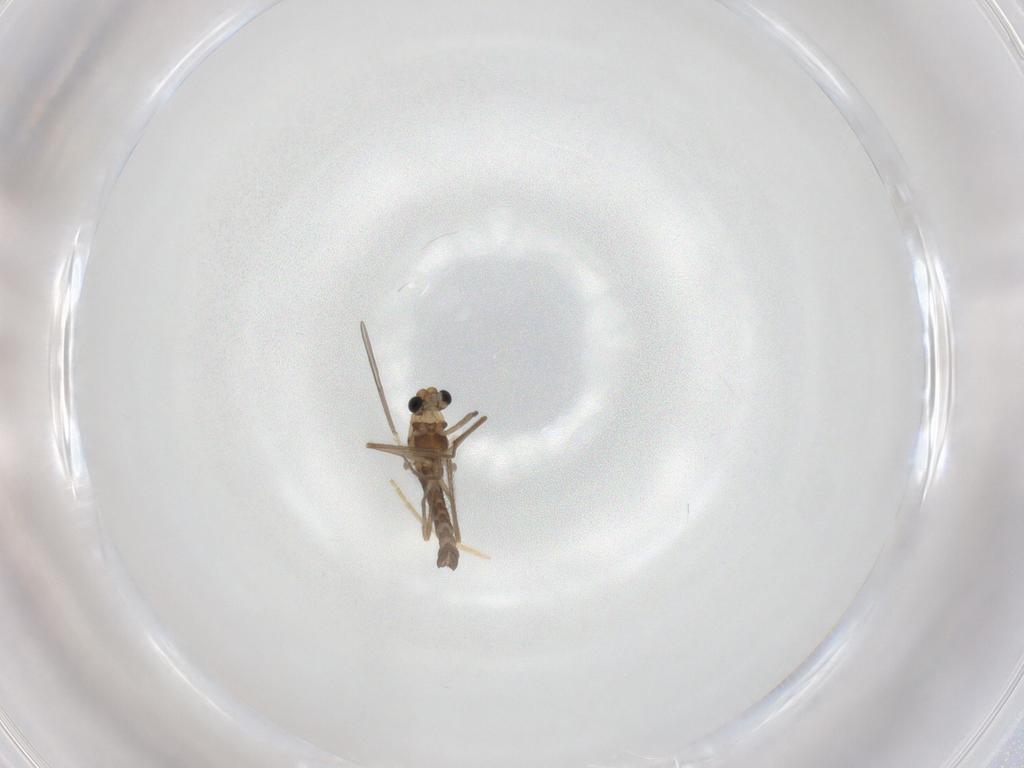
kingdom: Animalia
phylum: Arthropoda
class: Insecta
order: Diptera
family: Chironomidae
